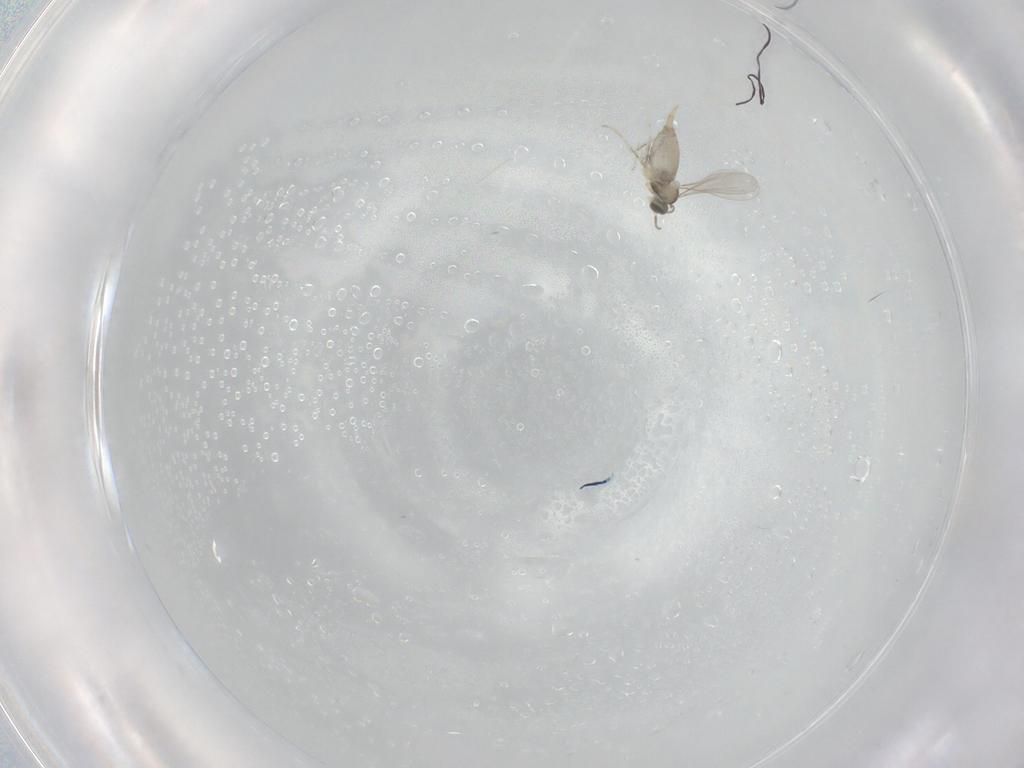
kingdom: Animalia
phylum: Arthropoda
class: Insecta
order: Diptera
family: Cecidomyiidae
